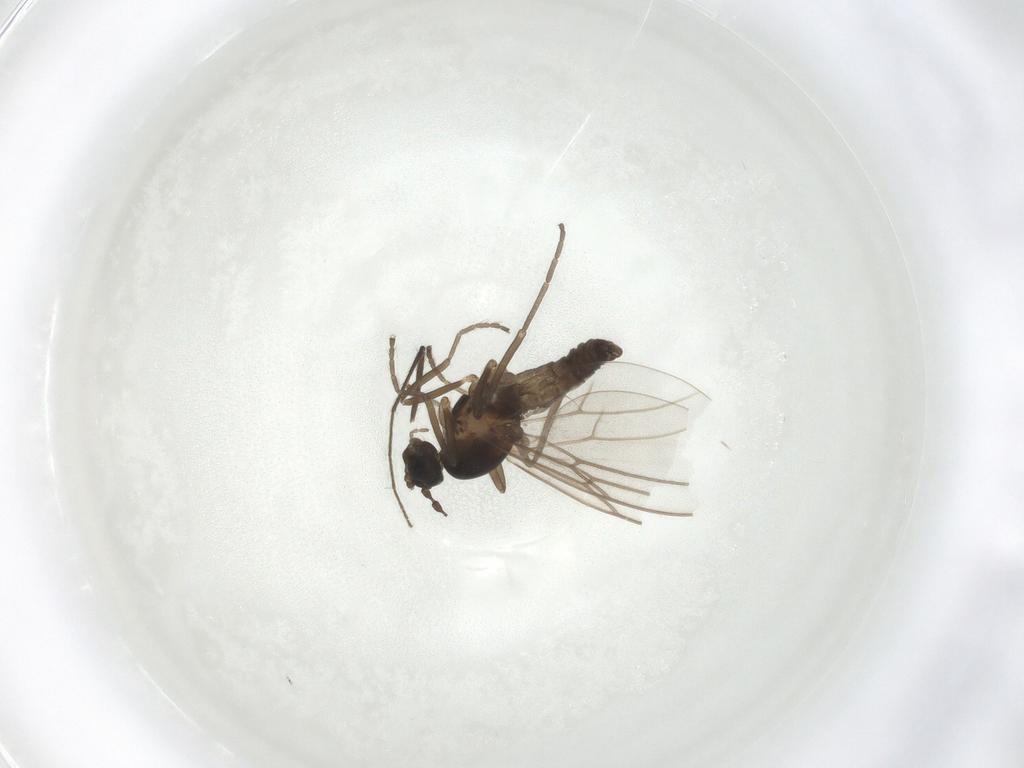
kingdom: Animalia
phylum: Arthropoda
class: Insecta
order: Diptera
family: Cecidomyiidae
